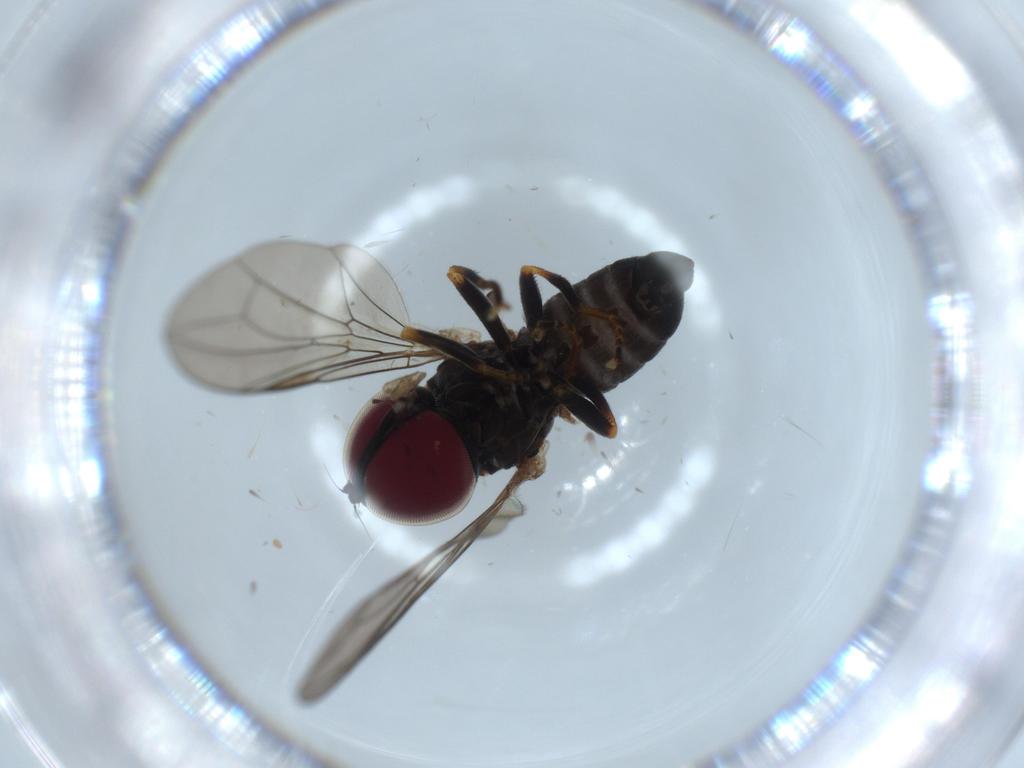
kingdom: Animalia
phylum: Arthropoda
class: Insecta
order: Diptera
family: Pipunculidae
